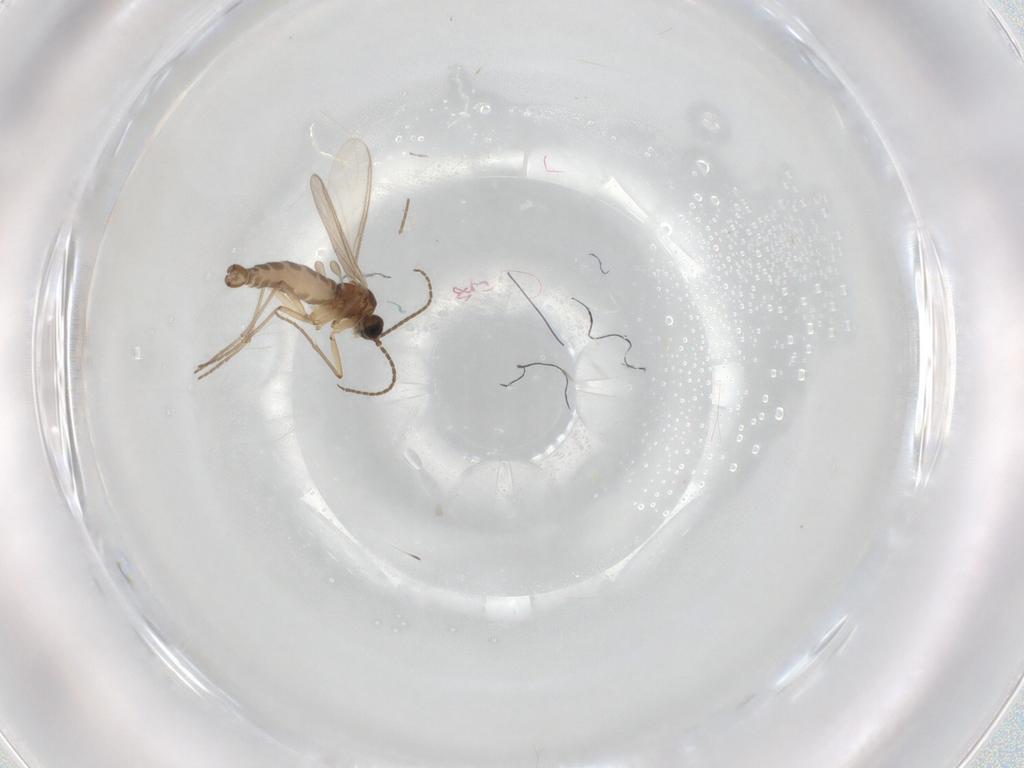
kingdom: Animalia
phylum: Arthropoda
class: Insecta
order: Diptera
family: Sciaridae
